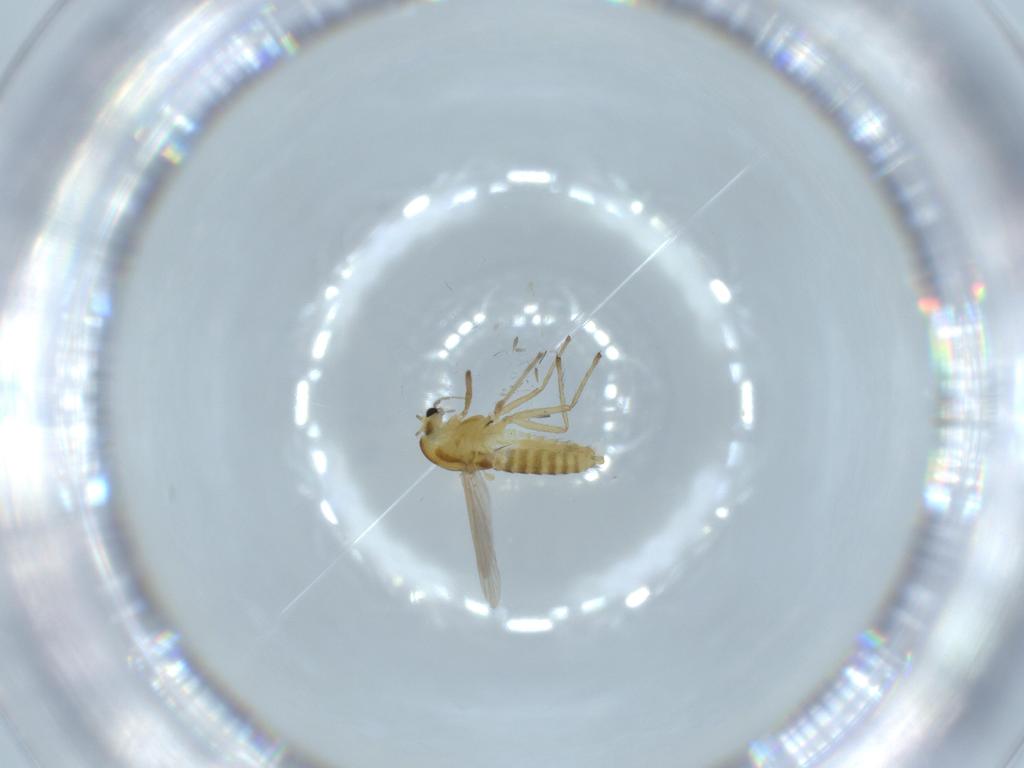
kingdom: Animalia
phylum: Arthropoda
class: Insecta
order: Diptera
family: Chironomidae
